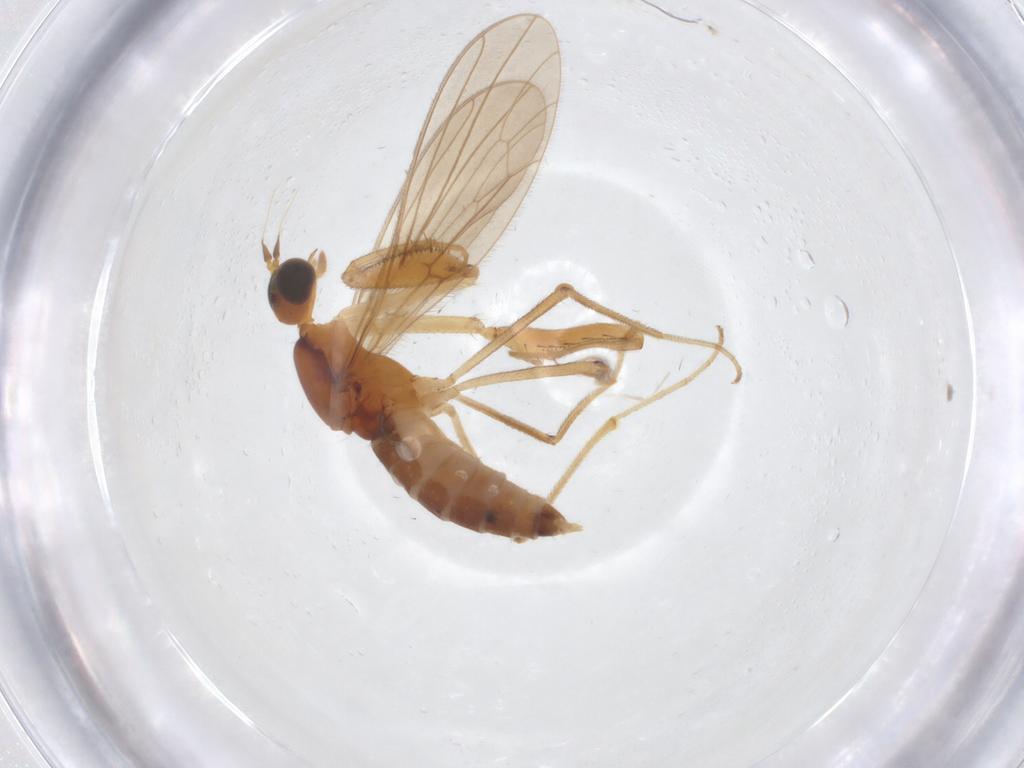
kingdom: Animalia
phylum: Arthropoda
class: Insecta
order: Diptera
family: Empididae
